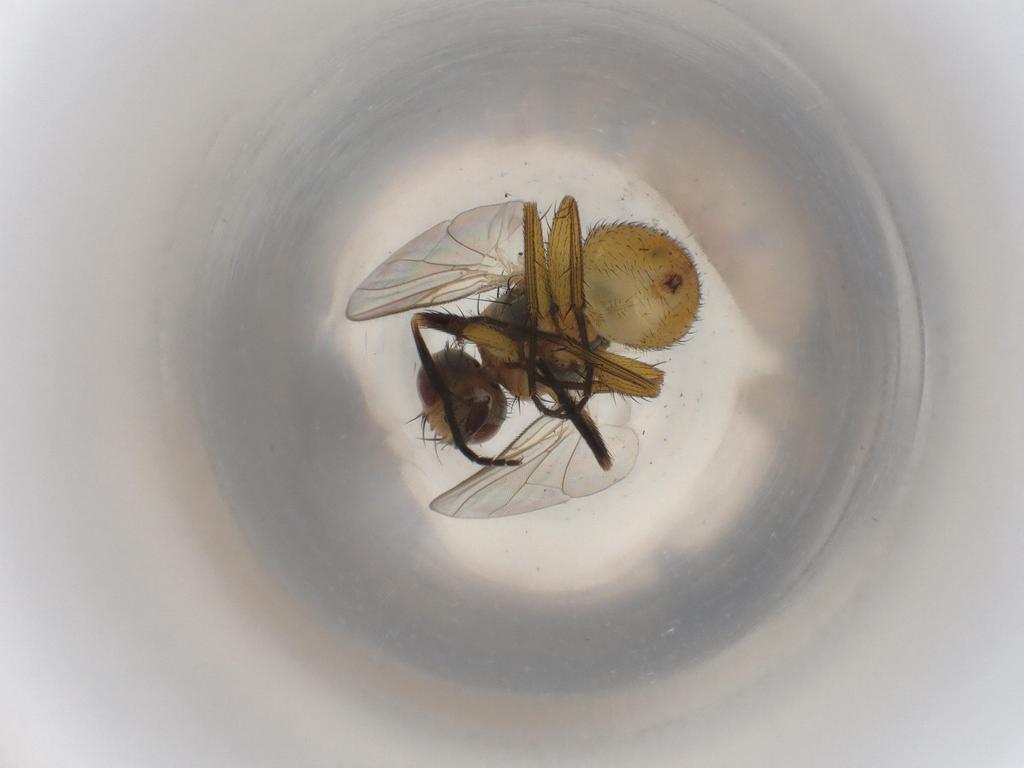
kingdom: Animalia
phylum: Arthropoda
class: Insecta
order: Diptera
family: Muscidae
